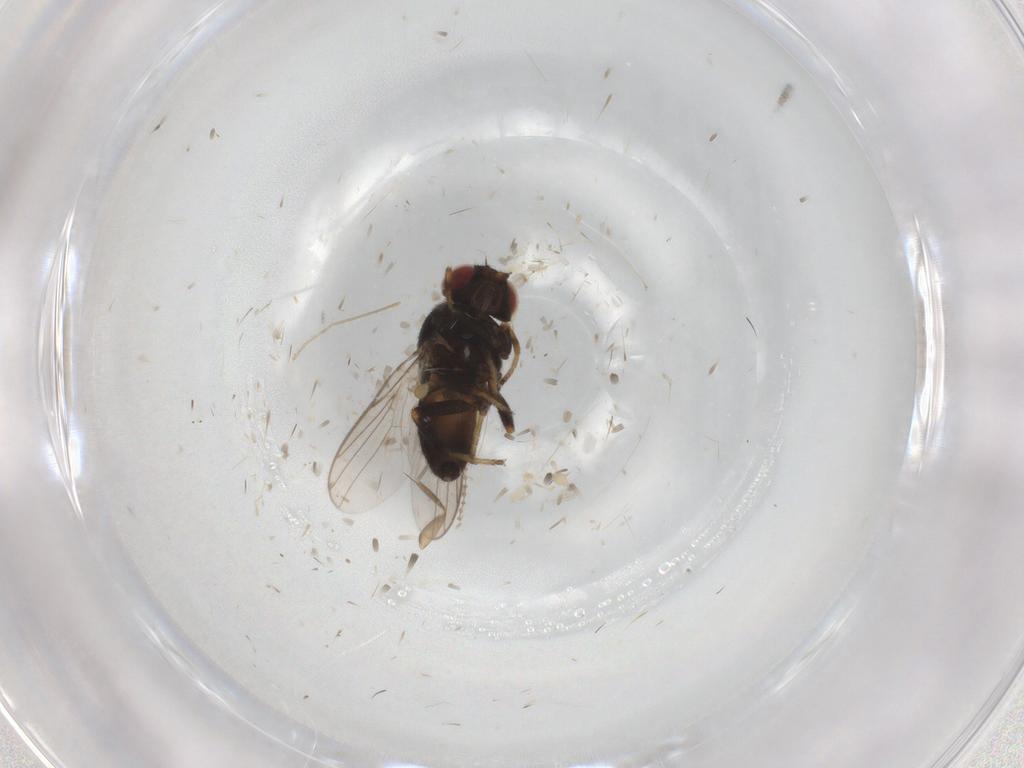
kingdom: Animalia
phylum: Arthropoda
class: Insecta
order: Diptera
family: Chloropidae
